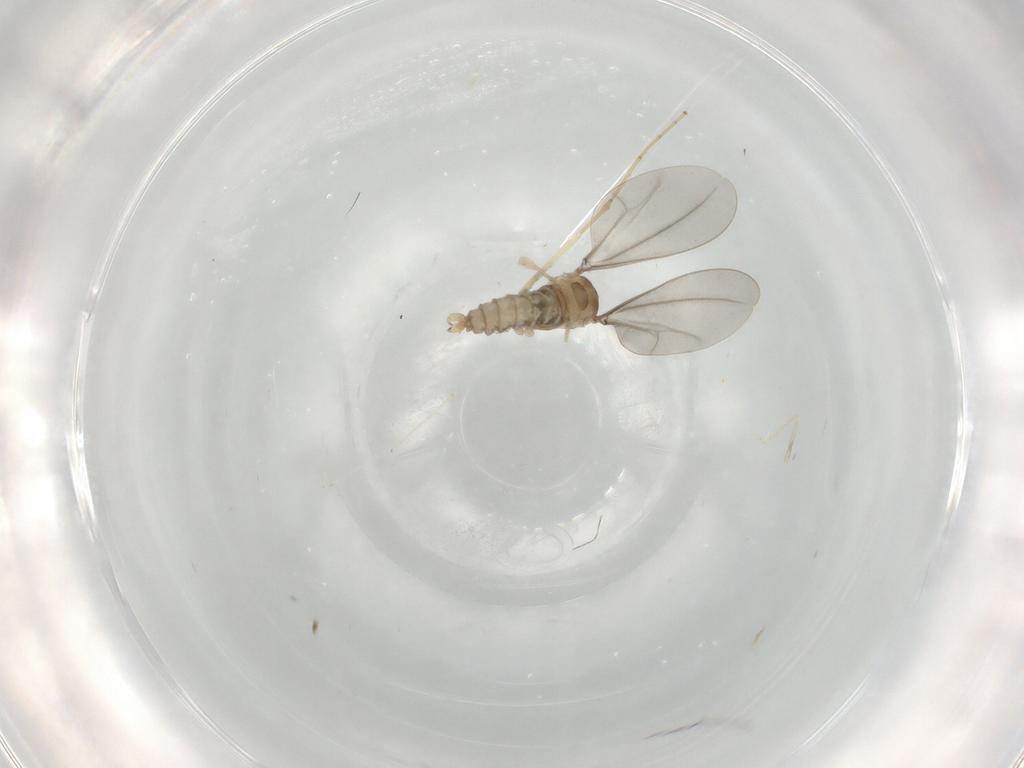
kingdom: Animalia
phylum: Arthropoda
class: Insecta
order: Diptera
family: Cecidomyiidae
